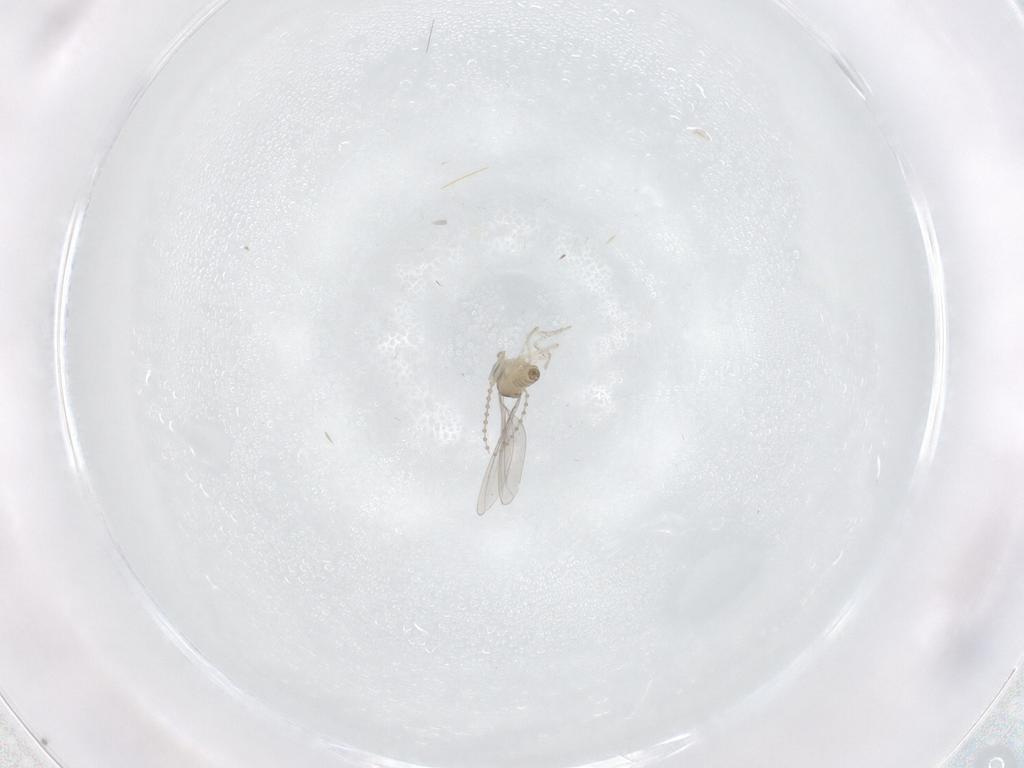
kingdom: Animalia
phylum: Arthropoda
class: Insecta
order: Diptera
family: Cecidomyiidae
